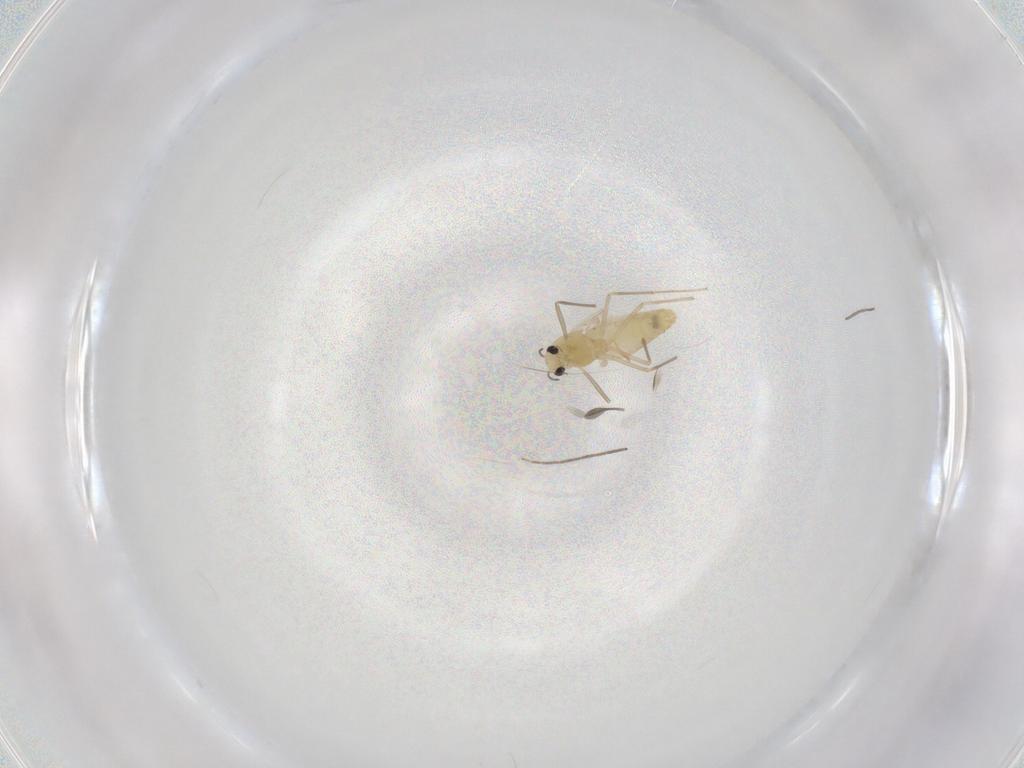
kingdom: Animalia
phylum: Arthropoda
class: Insecta
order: Diptera
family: Chironomidae
